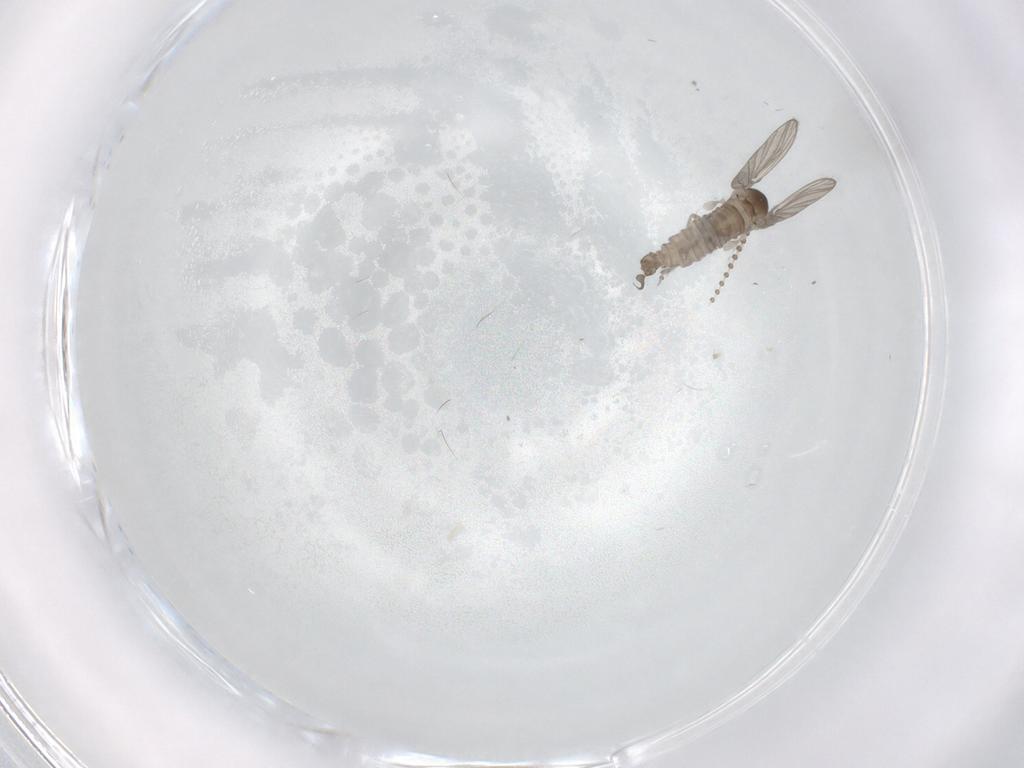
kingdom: Animalia
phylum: Arthropoda
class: Insecta
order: Diptera
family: Psychodidae
